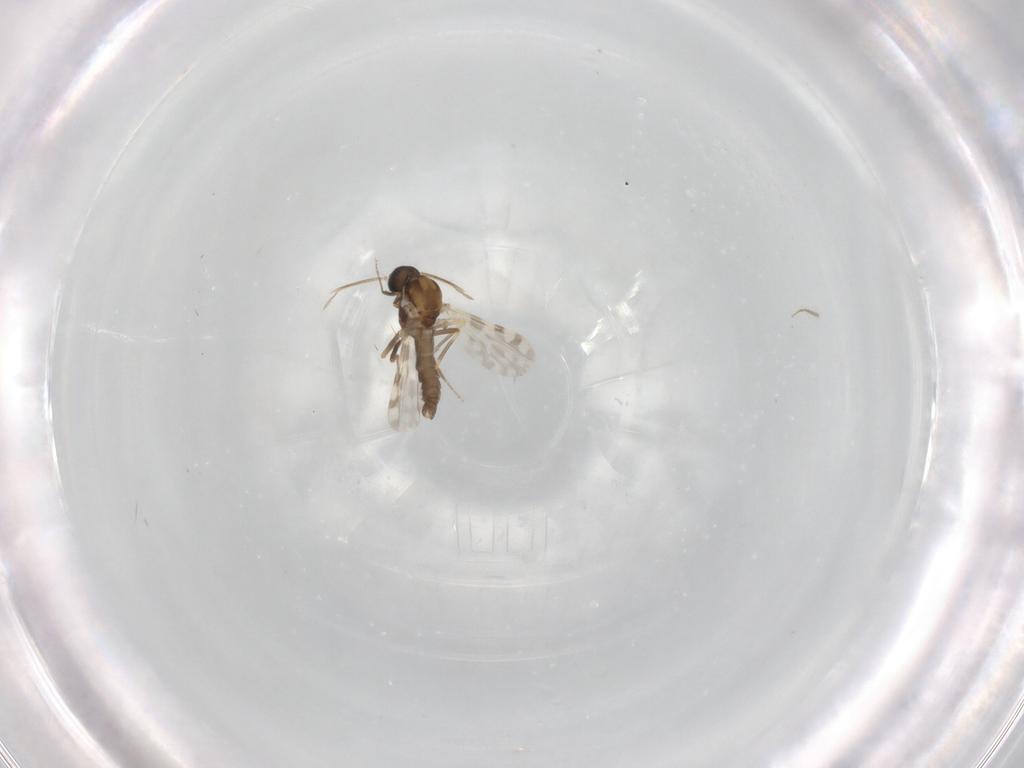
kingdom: Animalia
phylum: Arthropoda
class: Insecta
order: Diptera
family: Ceratopogonidae
